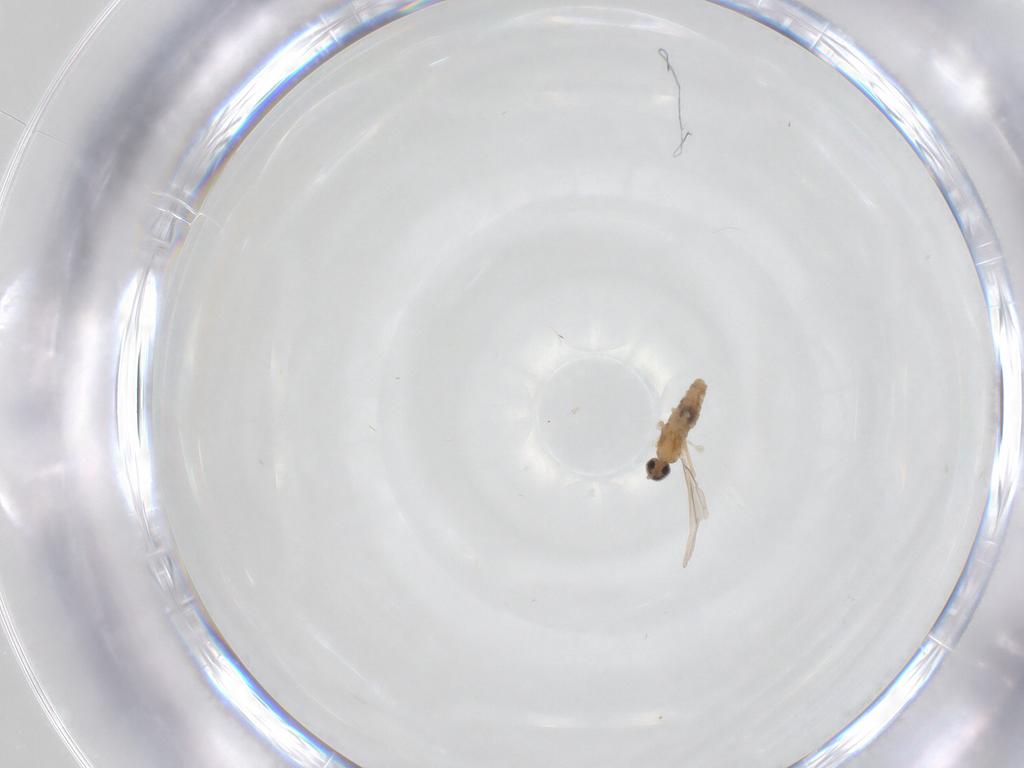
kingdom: Animalia
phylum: Arthropoda
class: Insecta
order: Diptera
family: Cecidomyiidae
